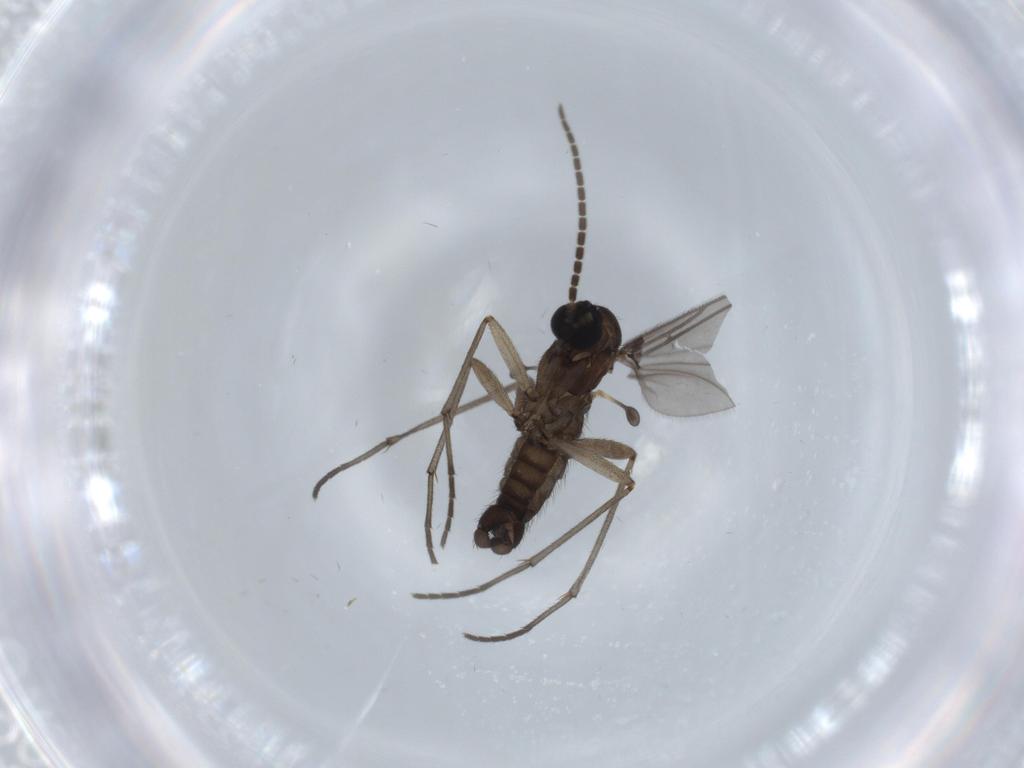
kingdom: Animalia
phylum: Arthropoda
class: Insecta
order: Diptera
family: Sciaridae
